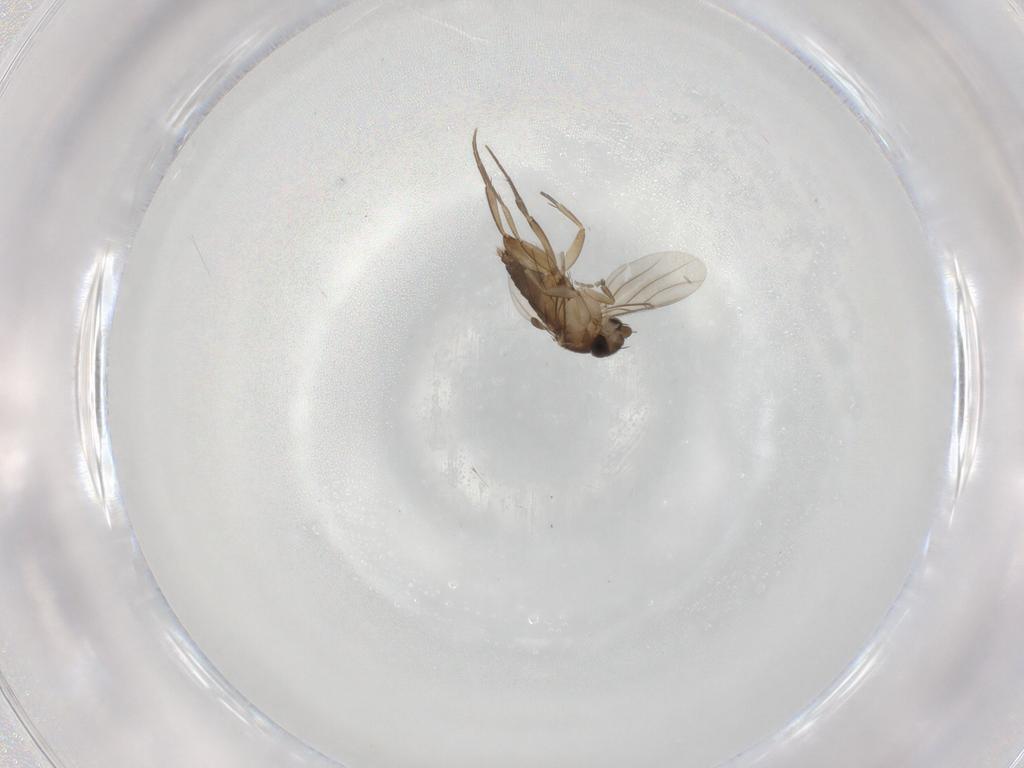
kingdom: Animalia
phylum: Arthropoda
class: Insecta
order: Diptera
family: Phoridae
